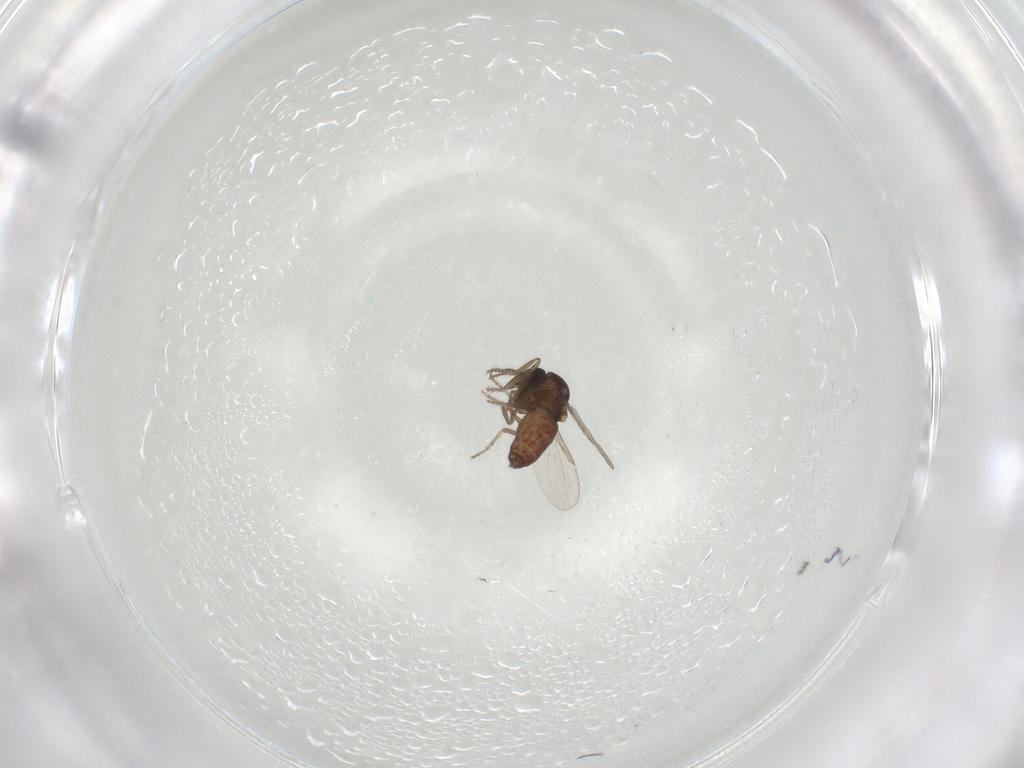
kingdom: Animalia
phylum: Arthropoda
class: Insecta
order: Diptera
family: Ceratopogonidae
